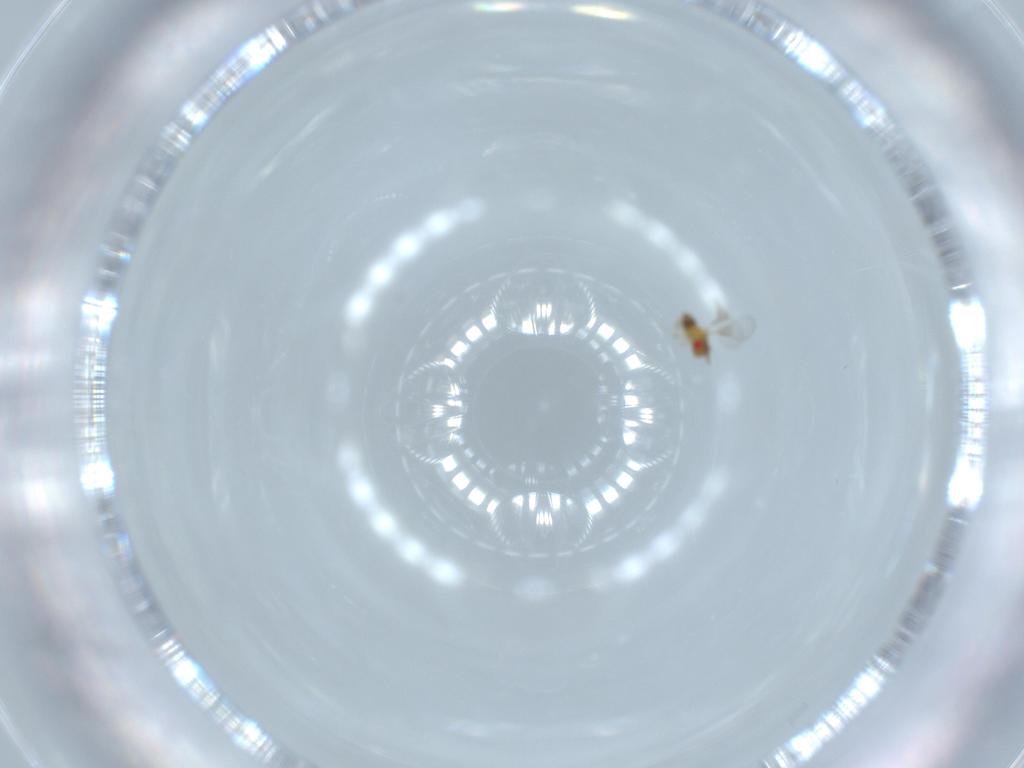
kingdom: Animalia
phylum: Arthropoda
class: Insecta
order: Hymenoptera
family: Trichogrammatidae
